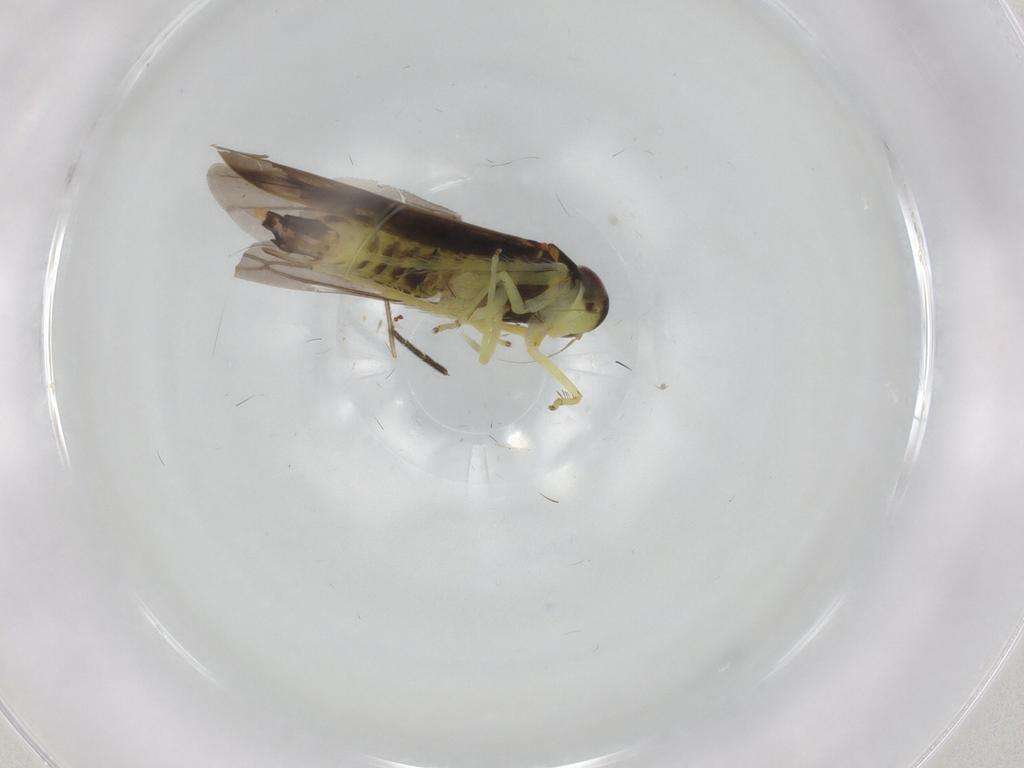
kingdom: Animalia
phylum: Arthropoda
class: Insecta
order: Hemiptera
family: Cicadellidae
